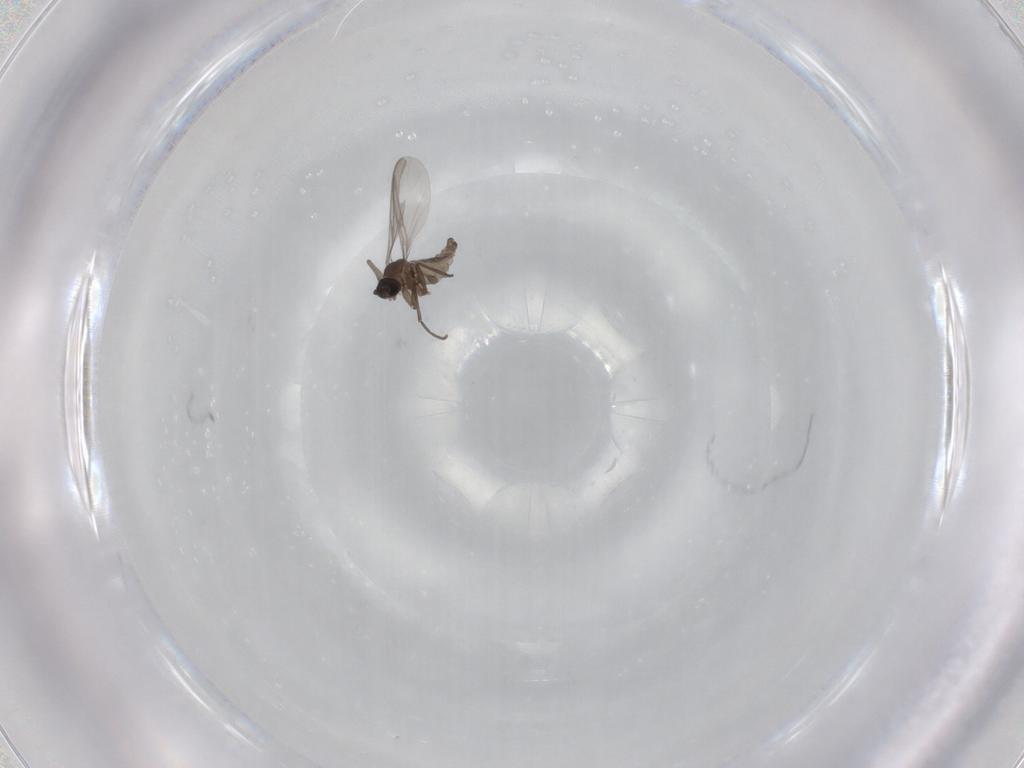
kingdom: Animalia
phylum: Arthropoda
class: Insecta
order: Diptera
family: Sciaridae
